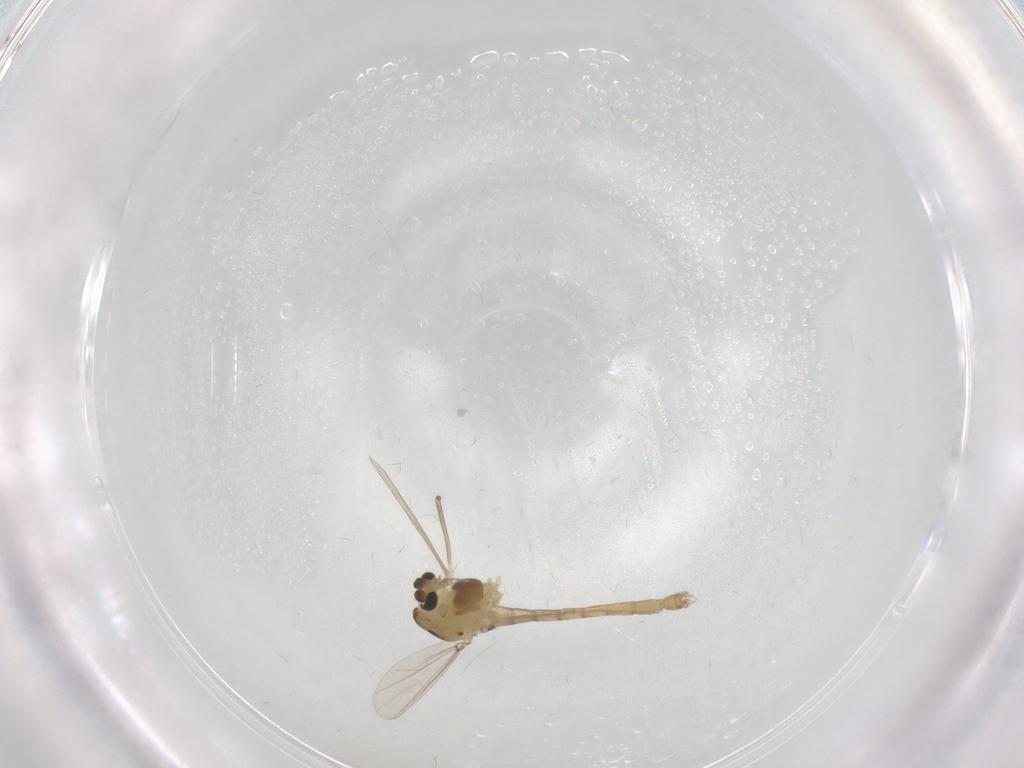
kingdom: Animalia
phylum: Arthropoda
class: Insecta
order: Diptera
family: Chironomidae
